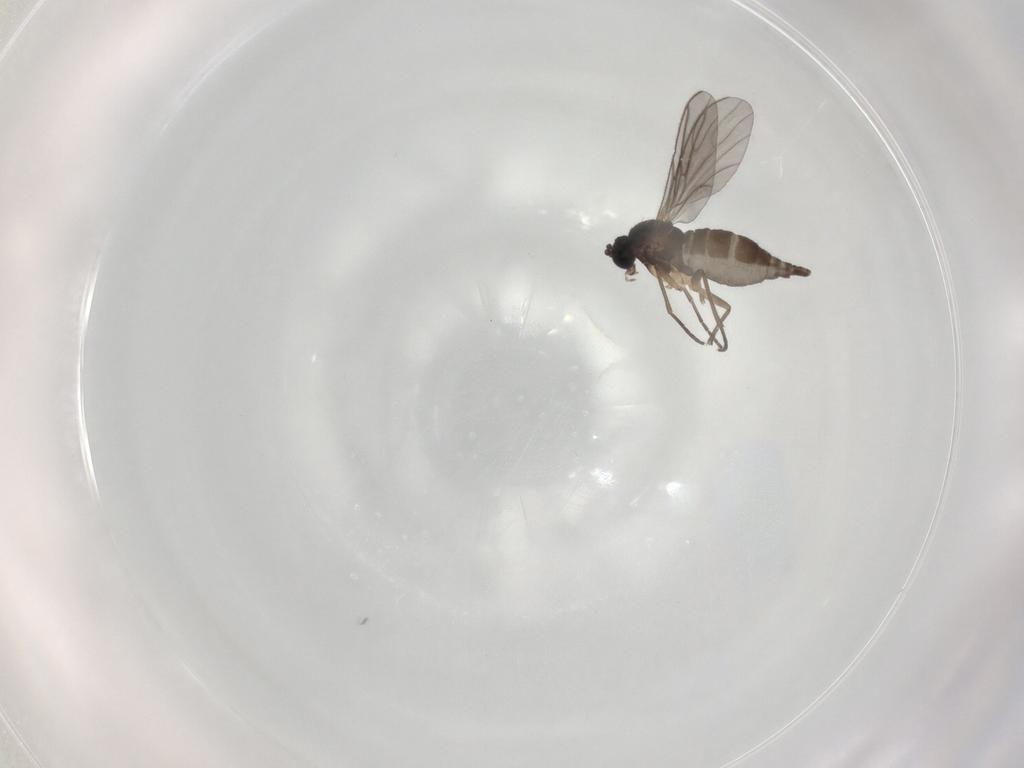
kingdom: Animalia
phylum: Arthropoda
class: Insecta
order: Diptera
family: Sciaridae
